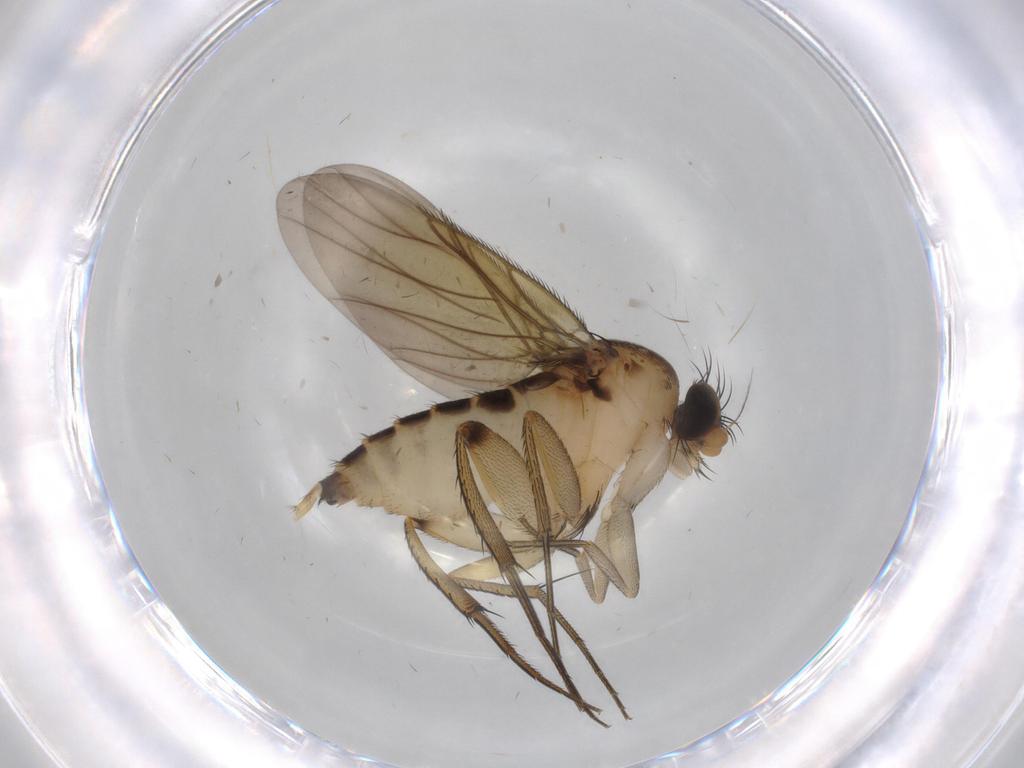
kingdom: Animalia
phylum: Arthropoda
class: Insecta
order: Diptera
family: Phoridae
